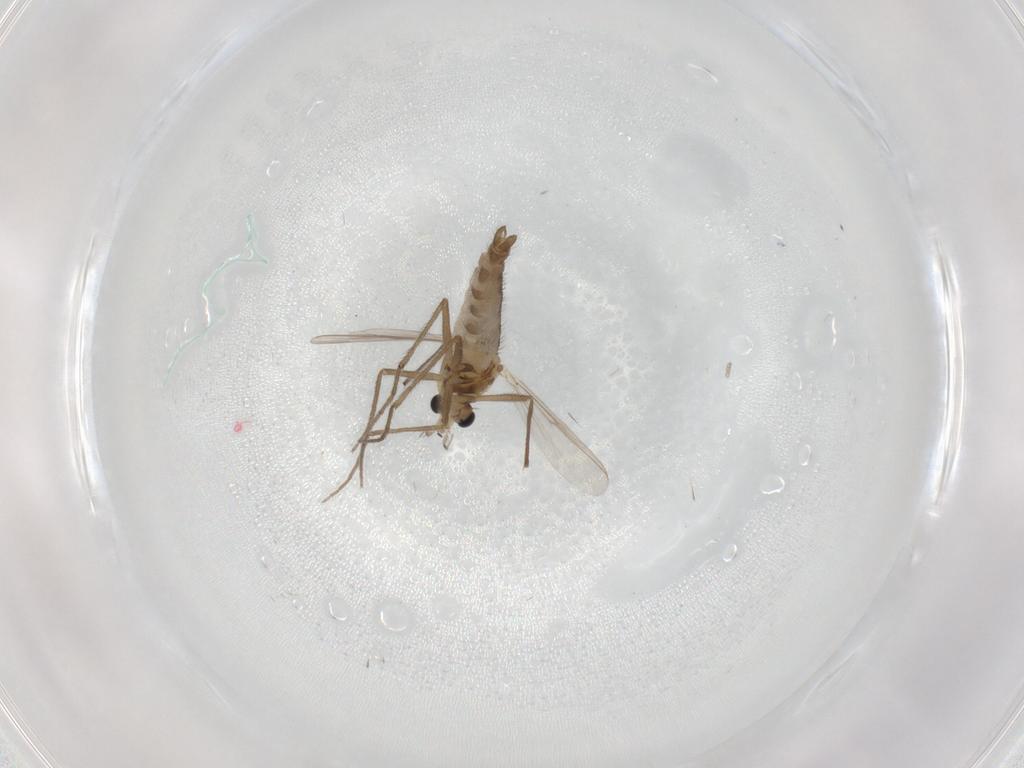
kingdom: Animalia
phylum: Arthropoda
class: Insecta
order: Diptera
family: Chironomidae
